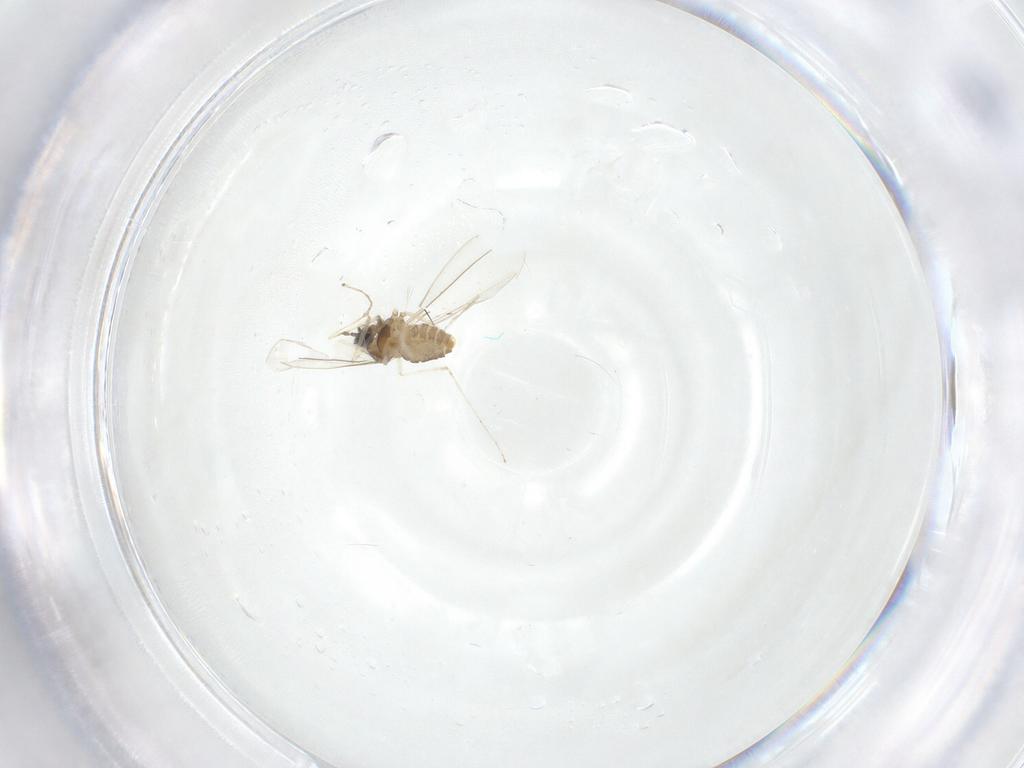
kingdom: Animalia
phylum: Arthropoda
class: Insecta
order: Diptera
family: Cecidomyiidae
